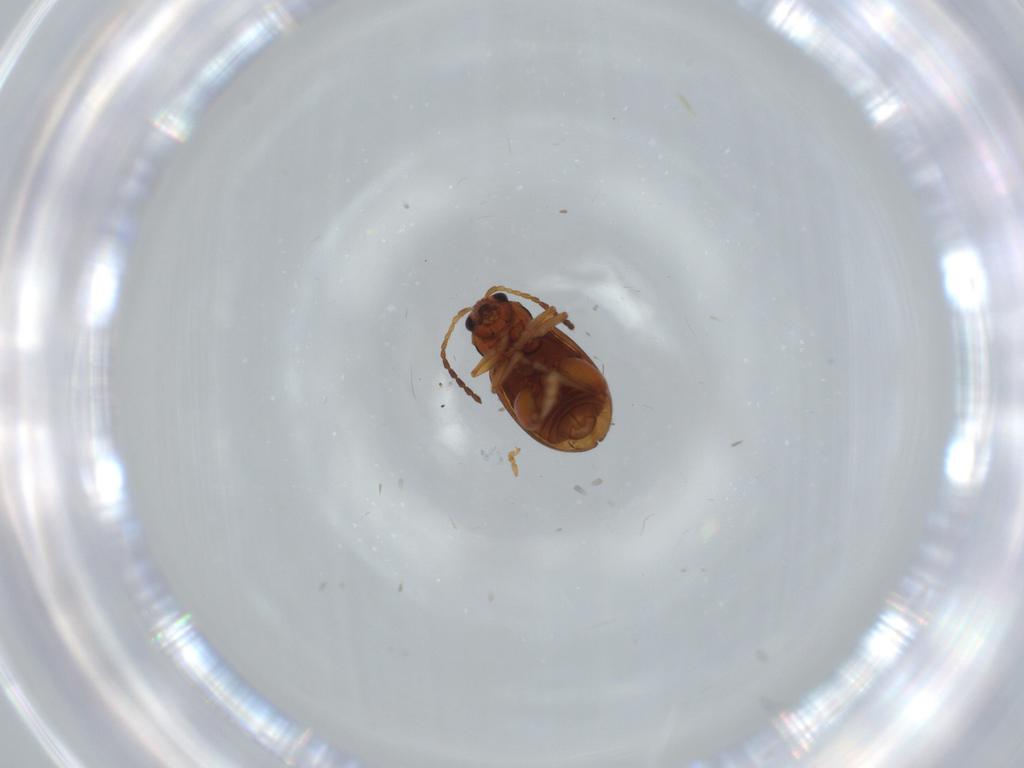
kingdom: Animalia
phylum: Arthropoda
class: Insecta
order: Coleoptera
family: Chrysomelidae
